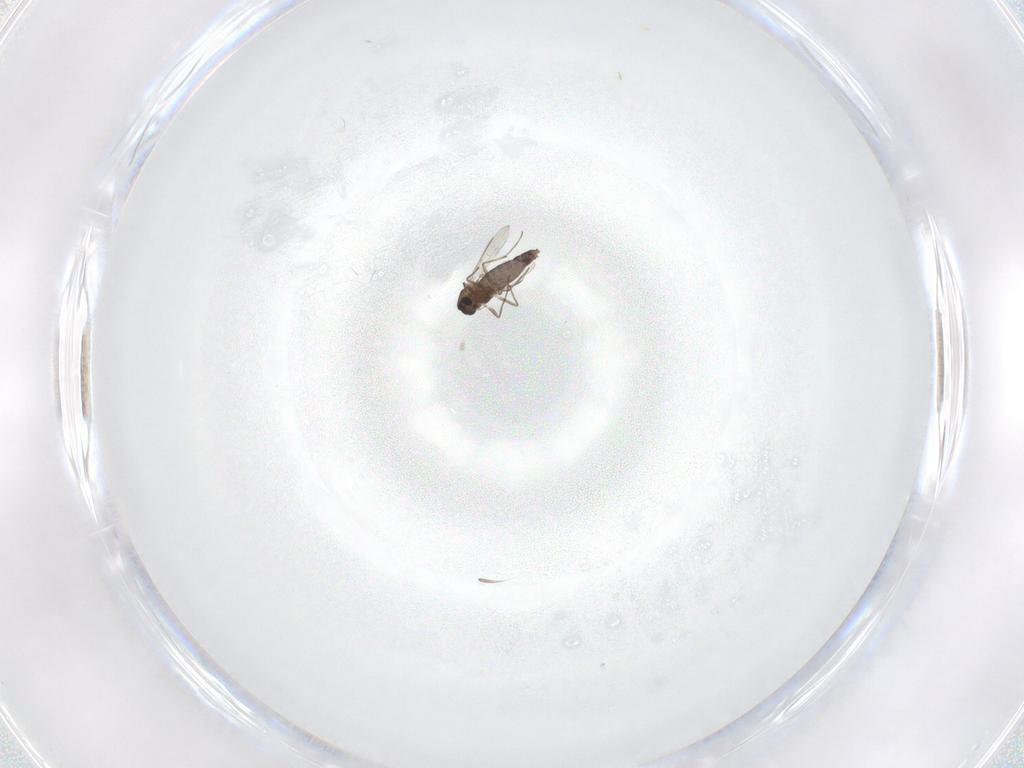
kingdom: Animalia
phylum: Arthropoda
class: Insecta
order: Diptera
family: Chironomidae
